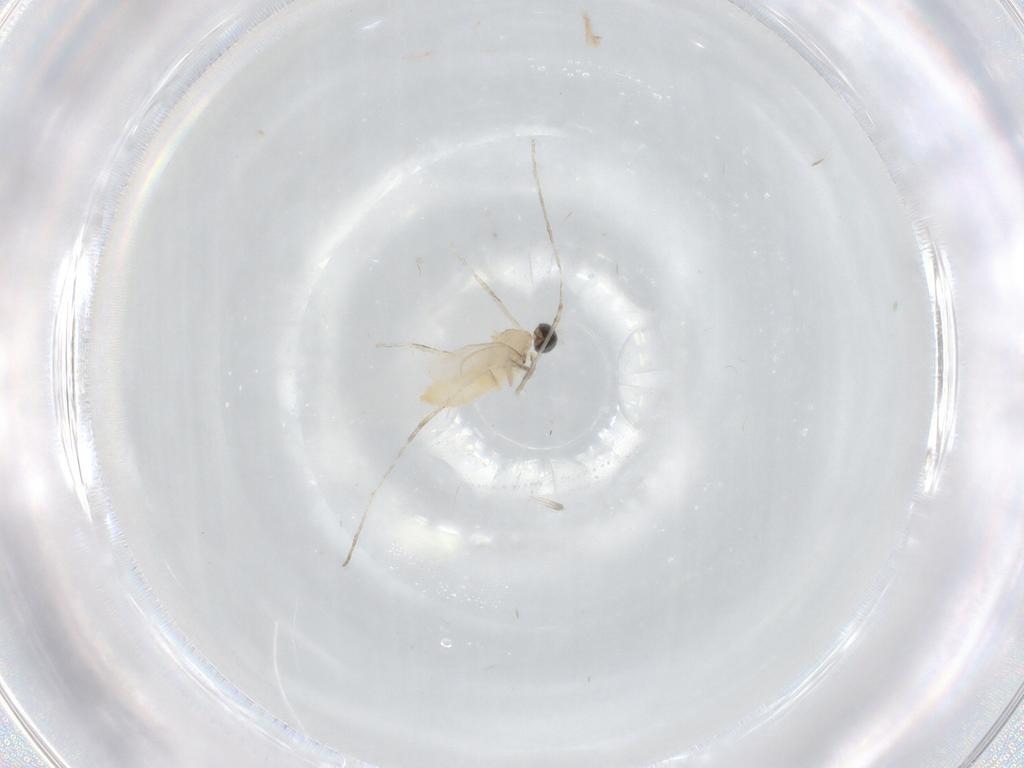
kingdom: Animalia
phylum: Arthropoda
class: Insecta
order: Diptera
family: Cecidomyiidae
